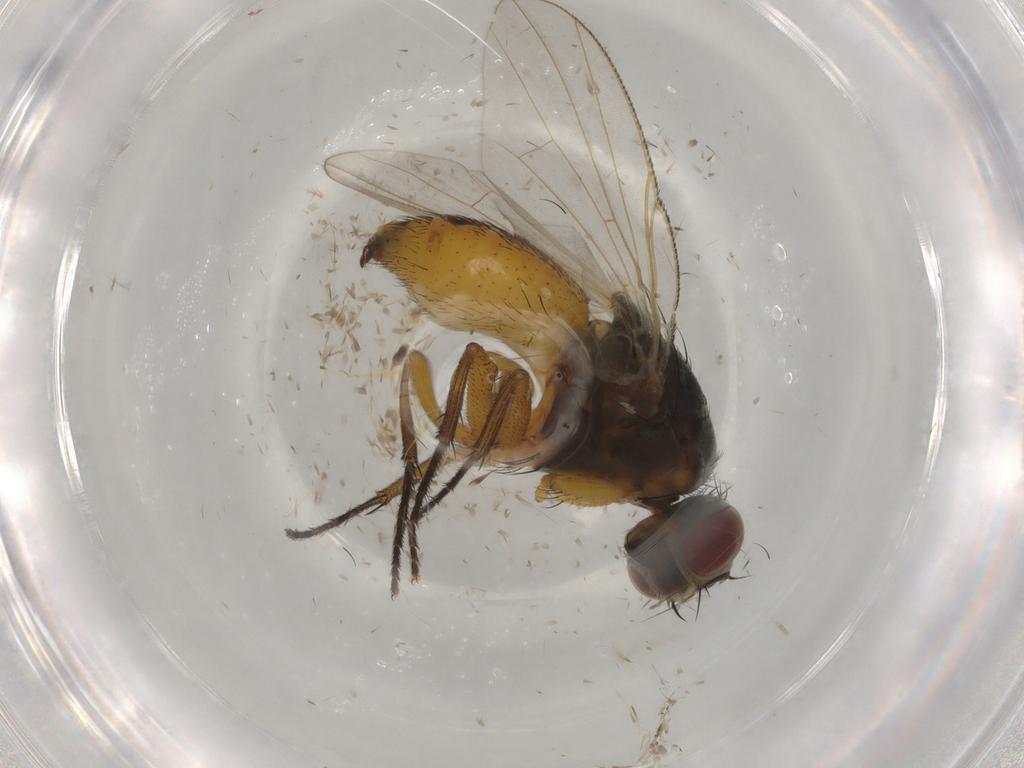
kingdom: Animalia
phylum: Arthropoda
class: Insecta
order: Diptera
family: Muscidae
